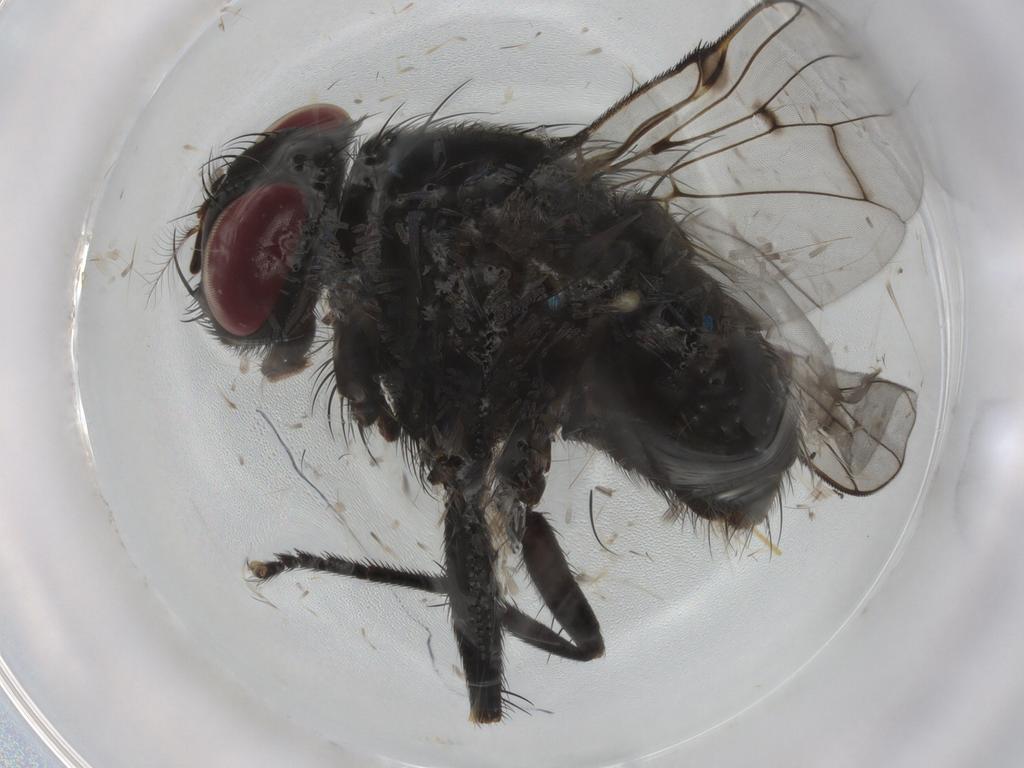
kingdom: Animalia
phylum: Arthropoda
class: Insecta
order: Diptera
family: Muscidae
